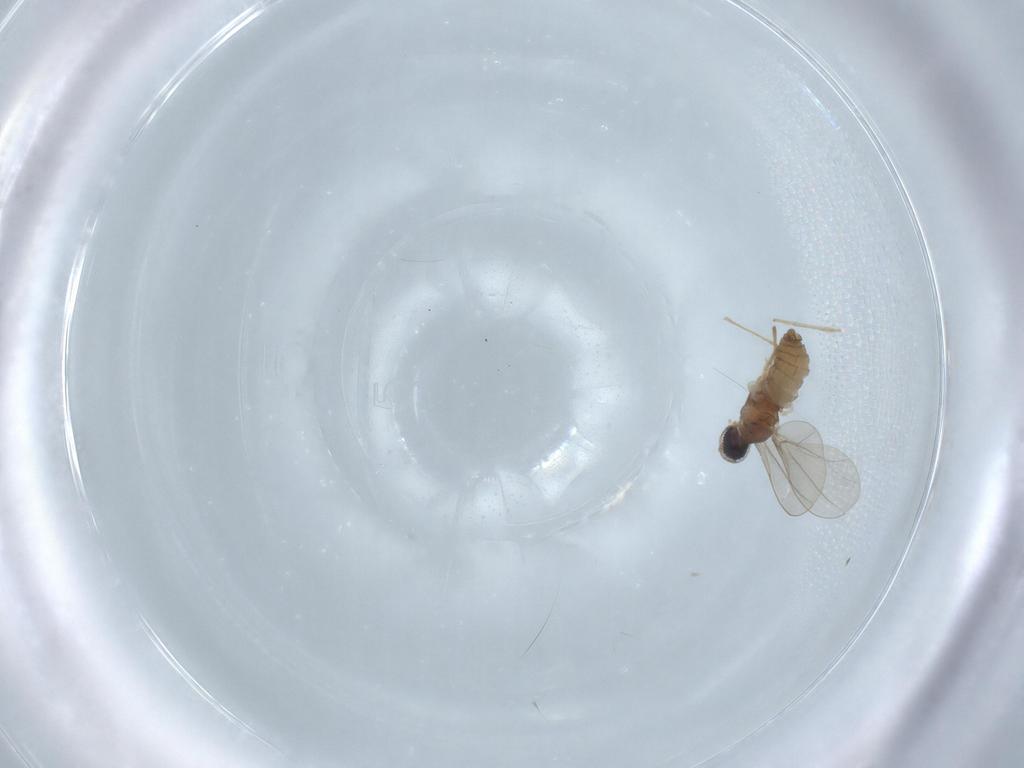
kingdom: Animalia
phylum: Arthropoda
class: Insecta
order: Diptera
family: Cecidomyiidae
